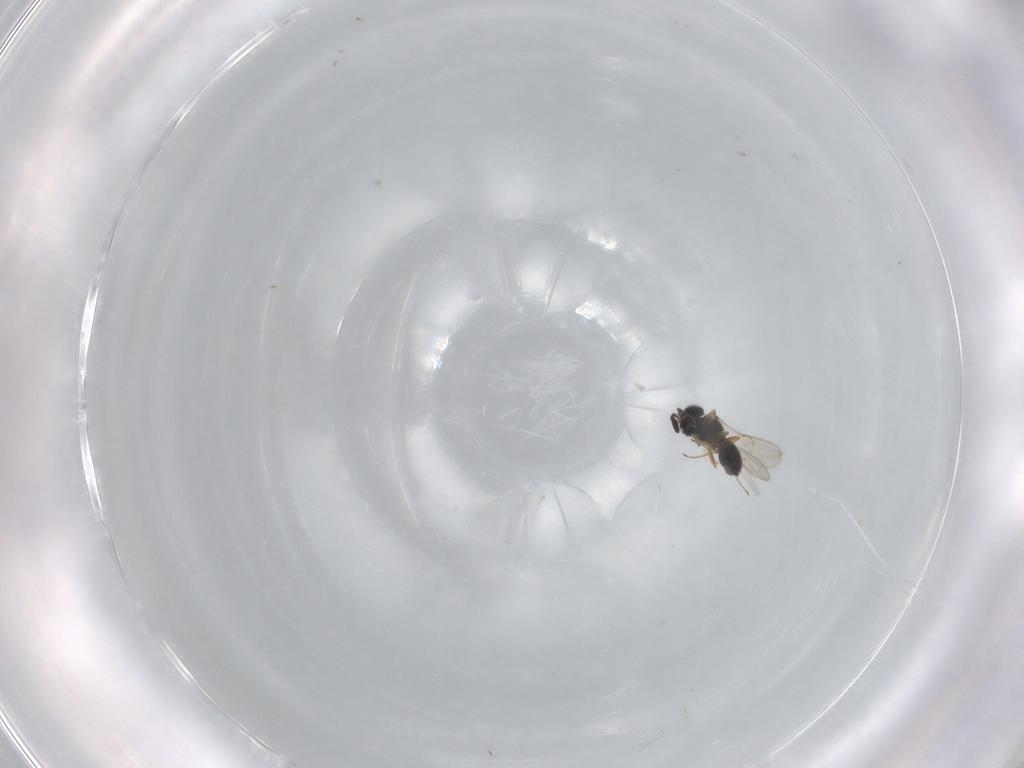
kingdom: Animalia
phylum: Arthropoda
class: Insecta
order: Hymenoptera
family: Scelionidae
